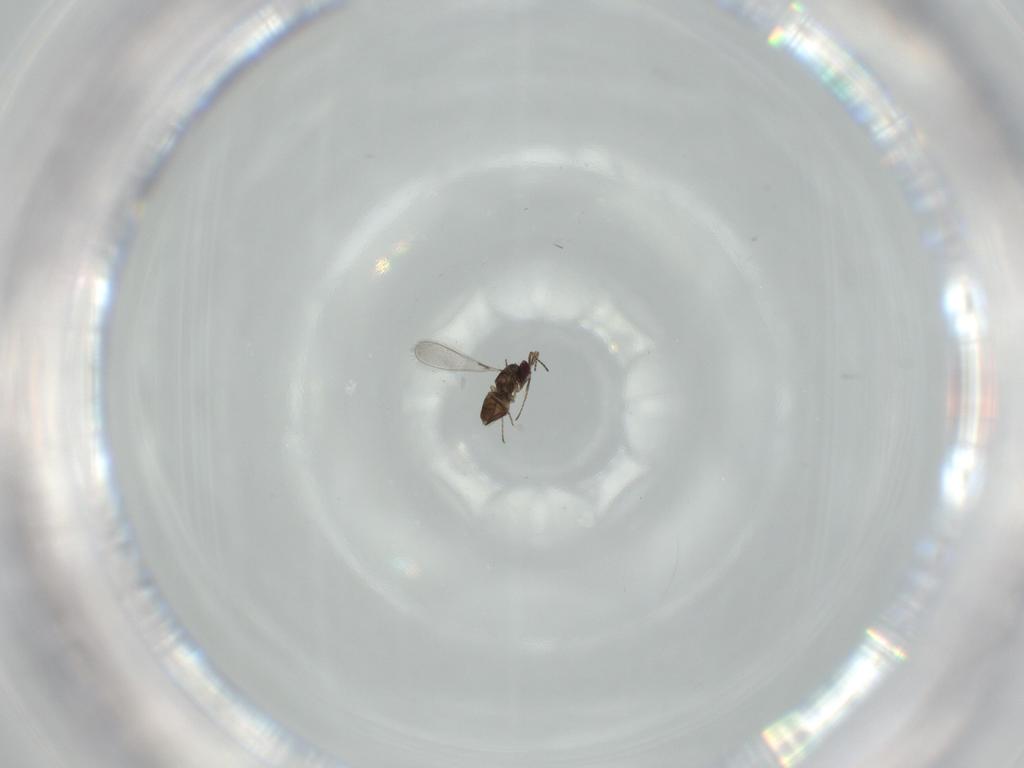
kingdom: Animalia
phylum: Arthropoda
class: Insecta
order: Hymenoptera
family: Mymaridae
